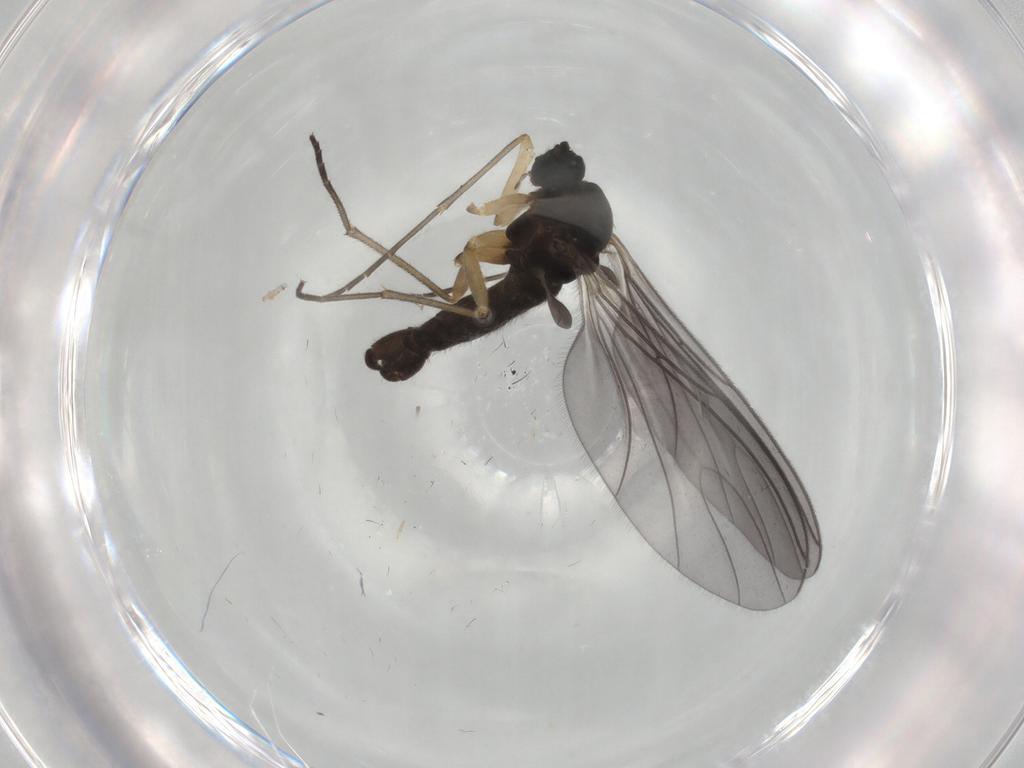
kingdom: Animalia
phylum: Arthropoda
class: Insecta
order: Diptera
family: Sciaridae
